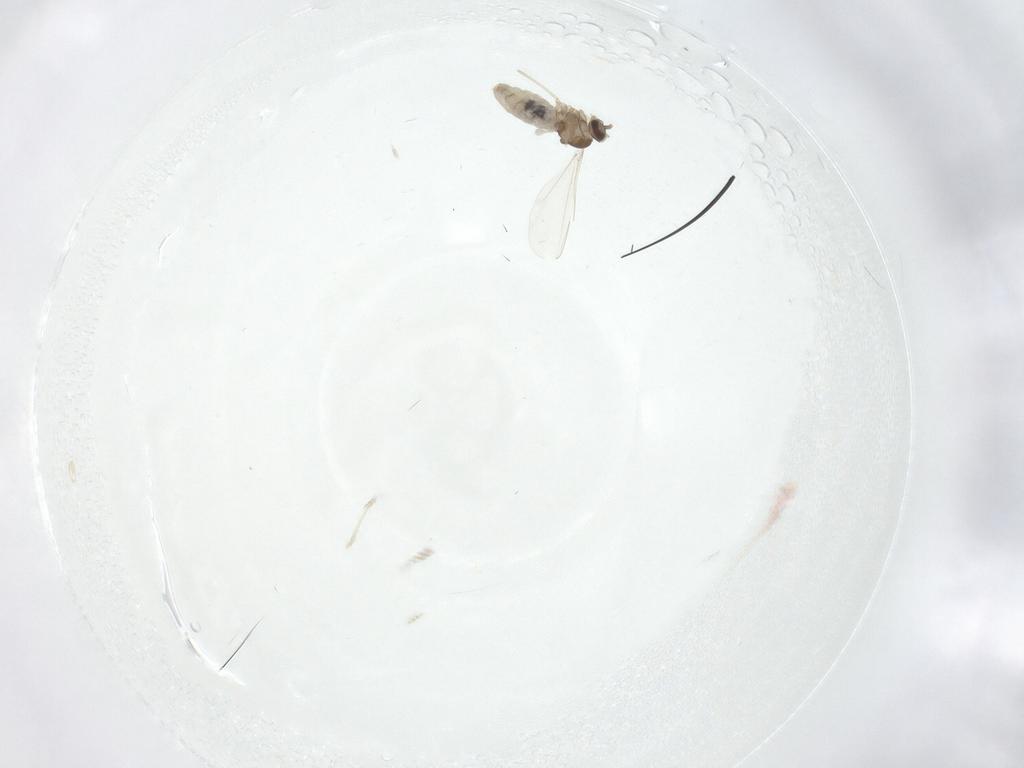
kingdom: Animalia
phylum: Arthropoda
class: Insecta
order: Diptera
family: Cecidomyiidae
